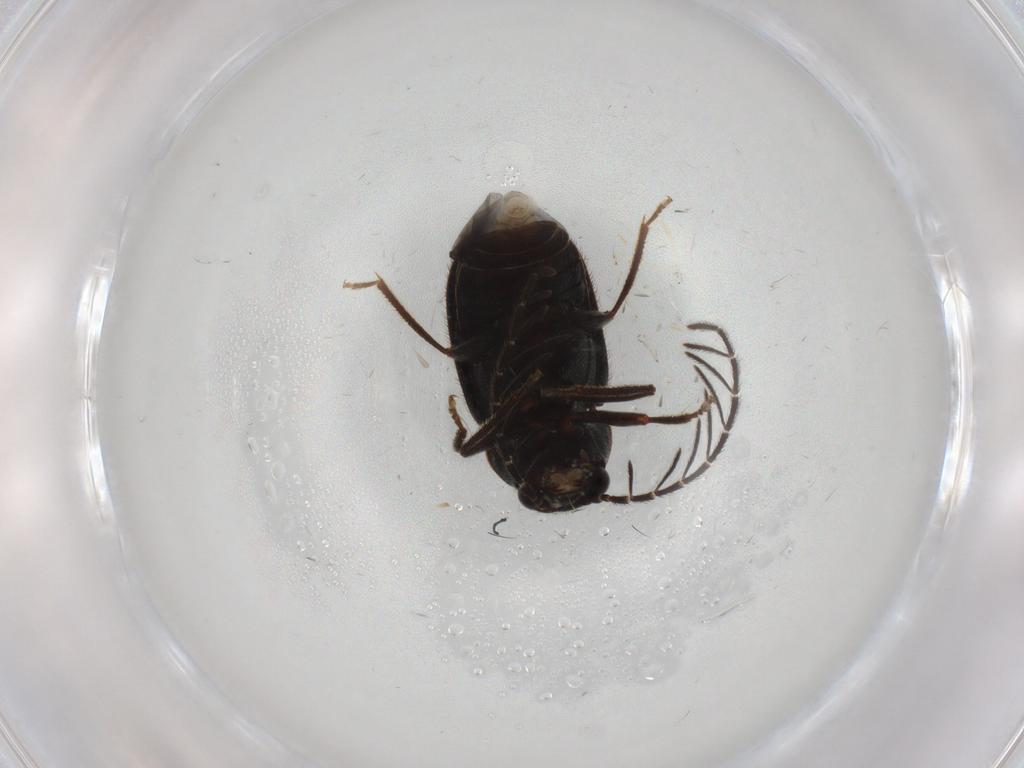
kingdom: Animalia
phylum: Arthropoda
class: Insecta
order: Coleoptera
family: Ptilodactylidae
